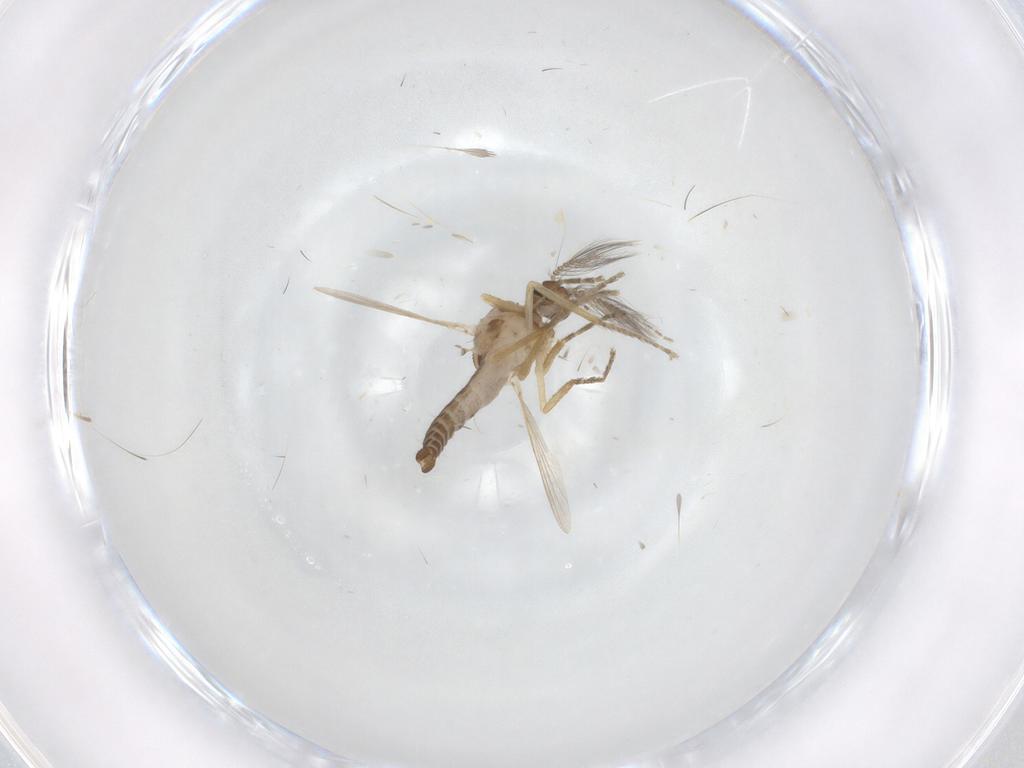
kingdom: Animalia
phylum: Arthropoda
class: Insecta
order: Diptera
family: Ceratopogonidae
